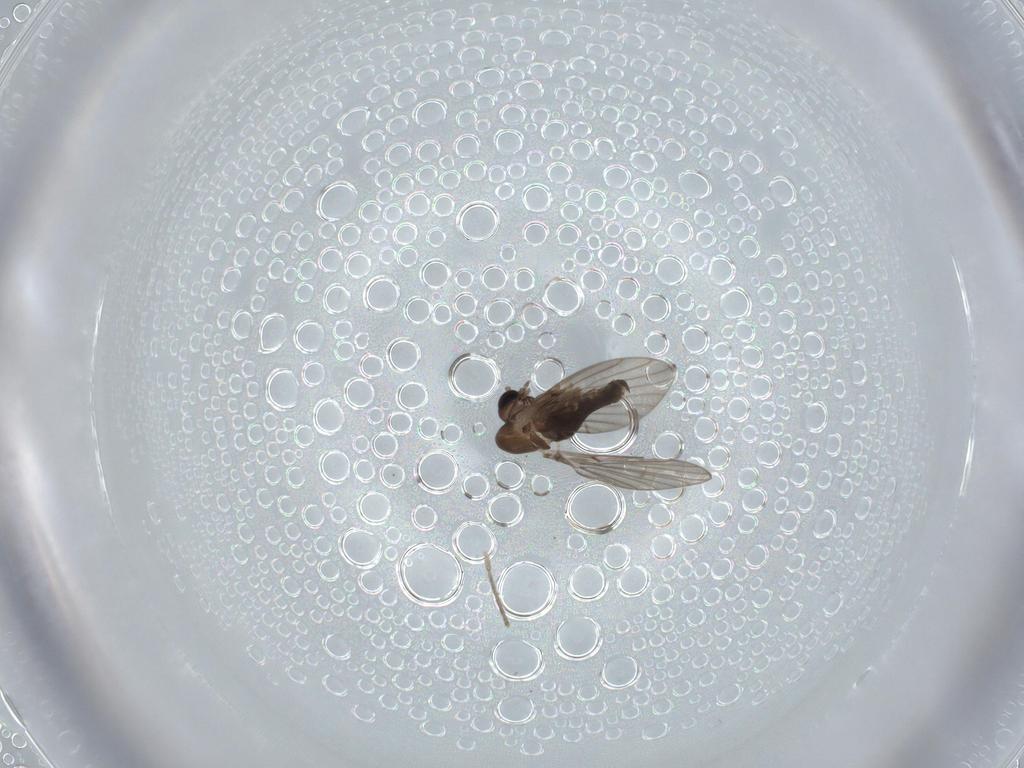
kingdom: Animalia
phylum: Arthropoda
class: Insecta
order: Diptera
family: Psychodidae
